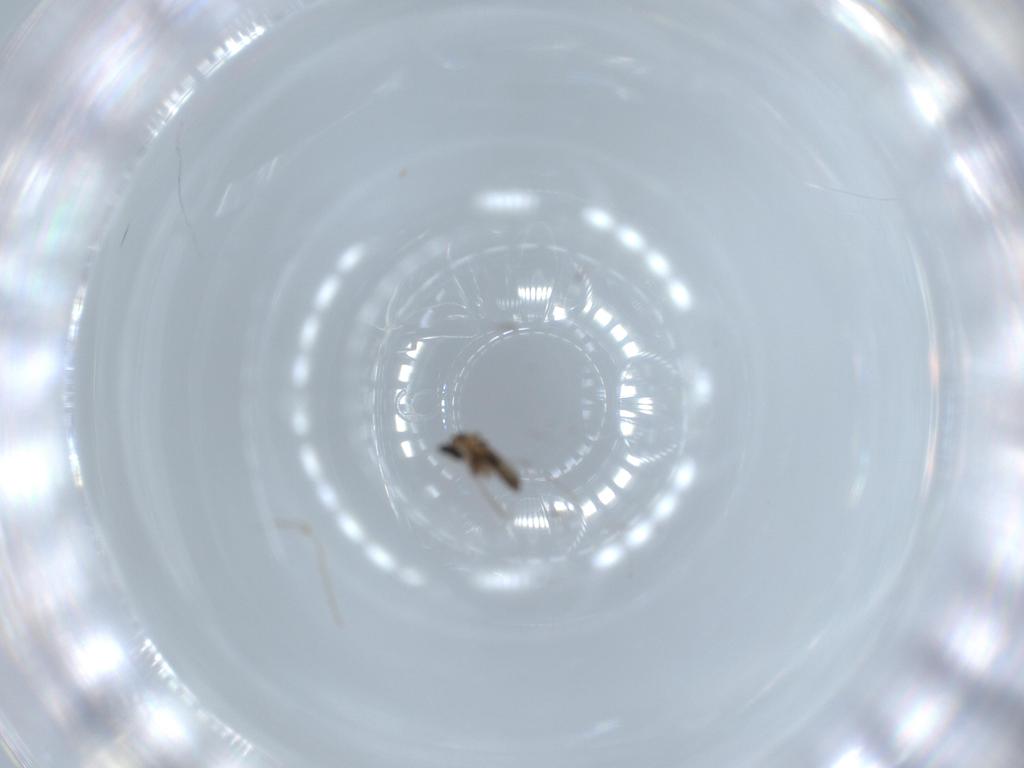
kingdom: Animalia
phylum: Arthropoda
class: Insecta
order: Diptera
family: Cecidomyiidae
